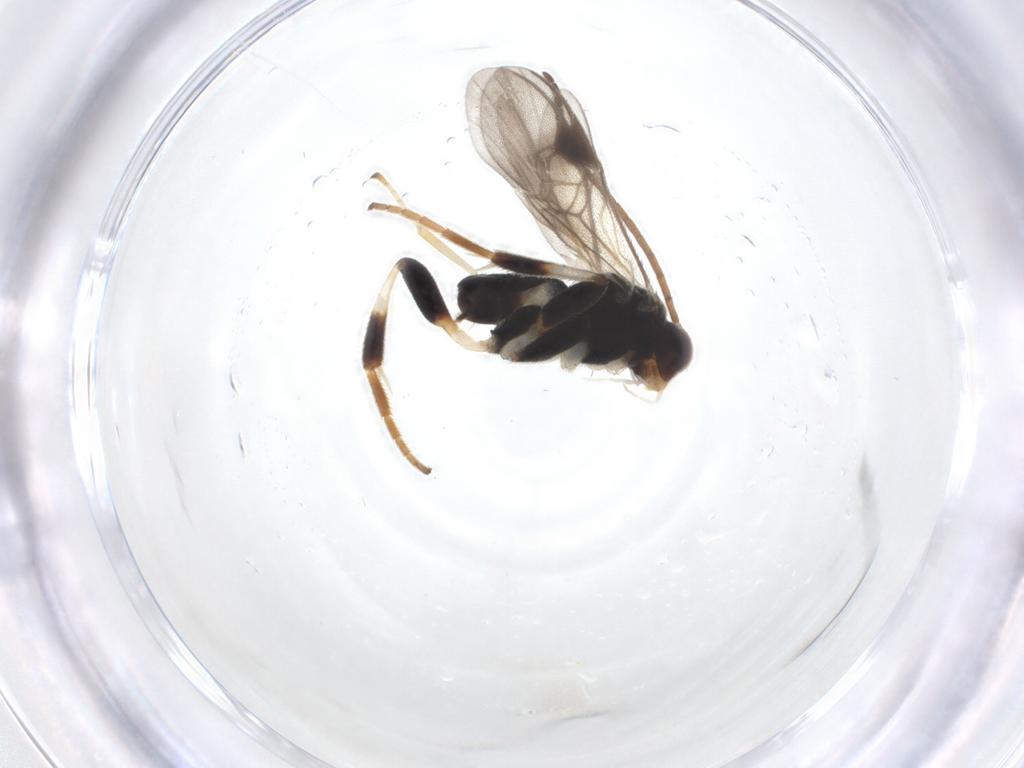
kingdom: Animalia
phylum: Arthropoda
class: Insecta
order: Hymenoptera
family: Braconidae
